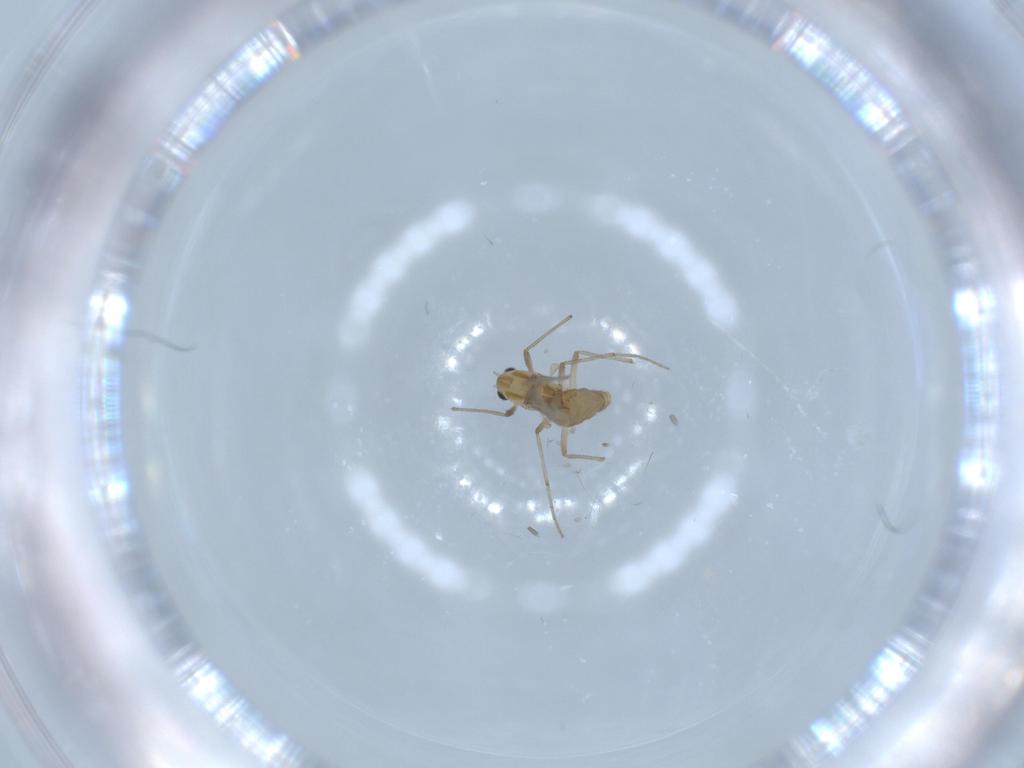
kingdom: Animalia
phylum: Arthropoda
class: Insecta
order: Diptera
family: Chironomidae
